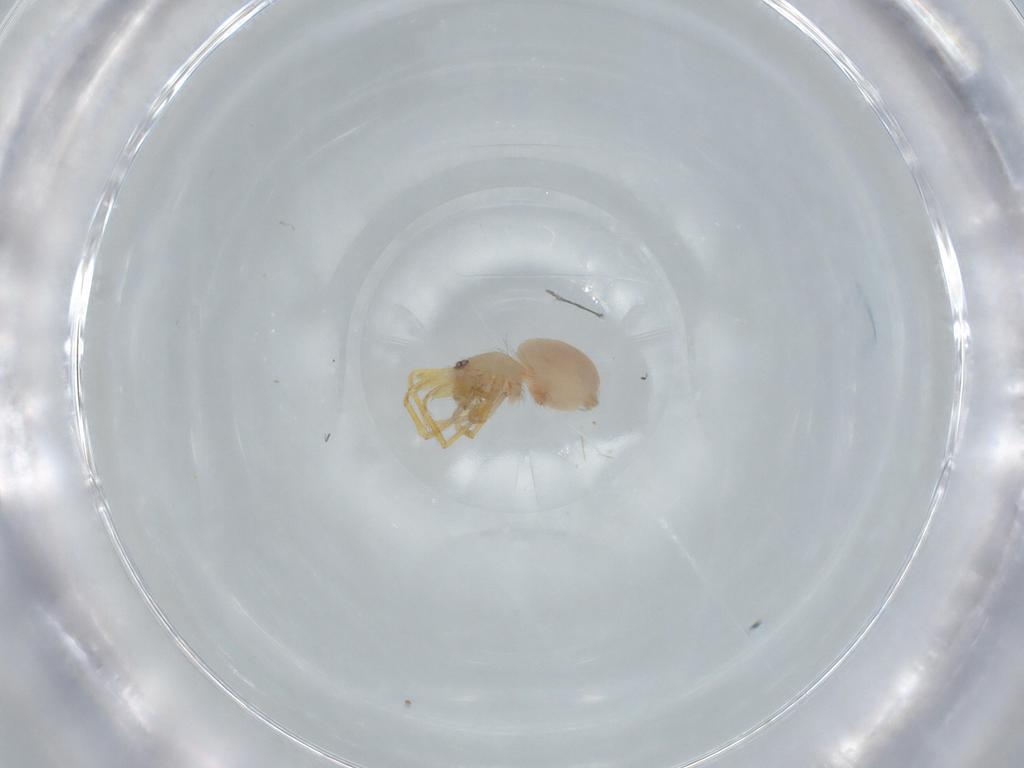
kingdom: Animalia
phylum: Arthropoda
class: Arachnida
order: Araneae
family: Oonopidae
